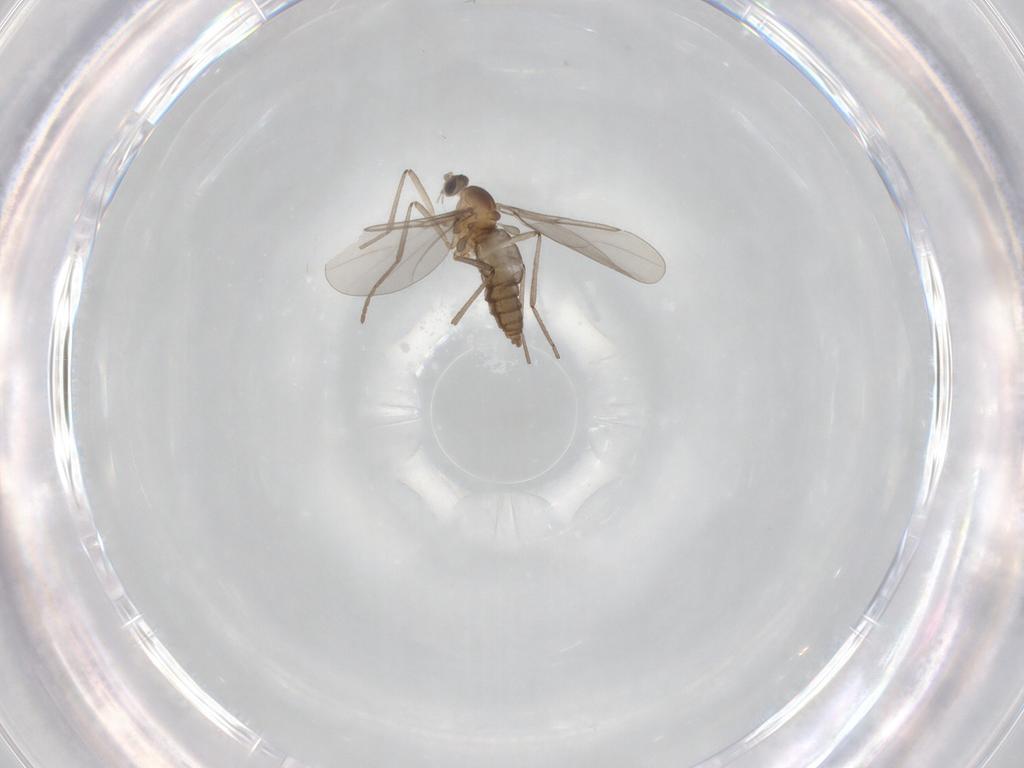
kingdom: Animalia
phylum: Arthropoda
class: Insecta
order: Diptera
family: Cecidomyiidae
